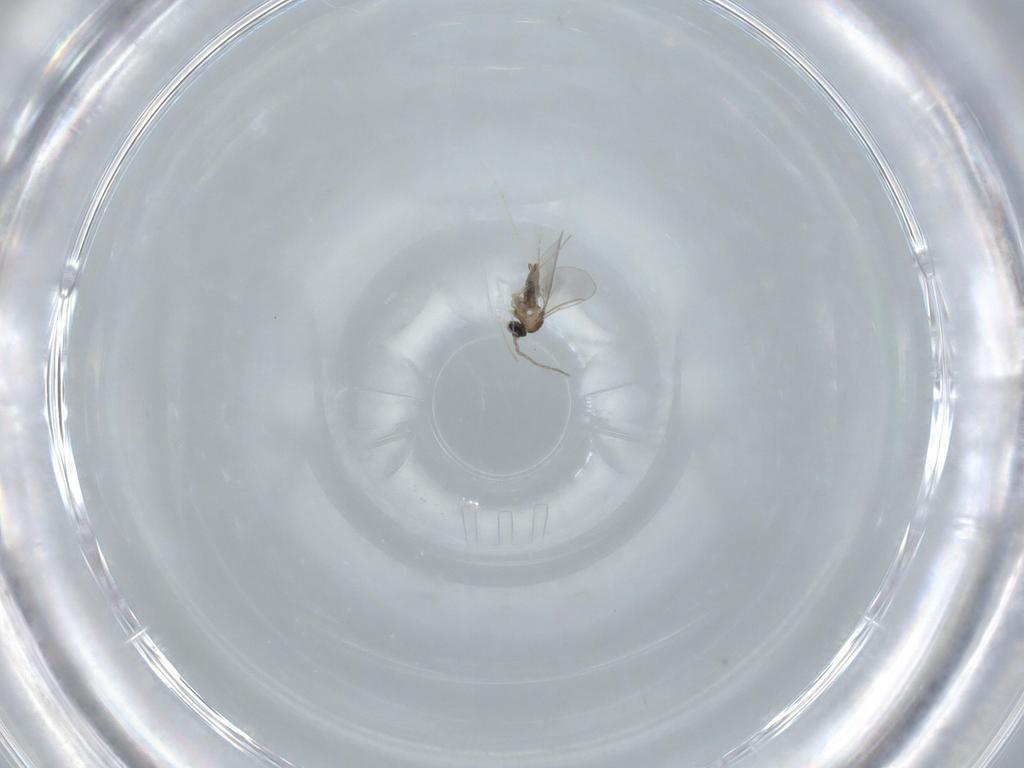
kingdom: Animalia
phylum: Arthropoda
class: Insecta
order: Diptera
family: Cecidomyiidae
